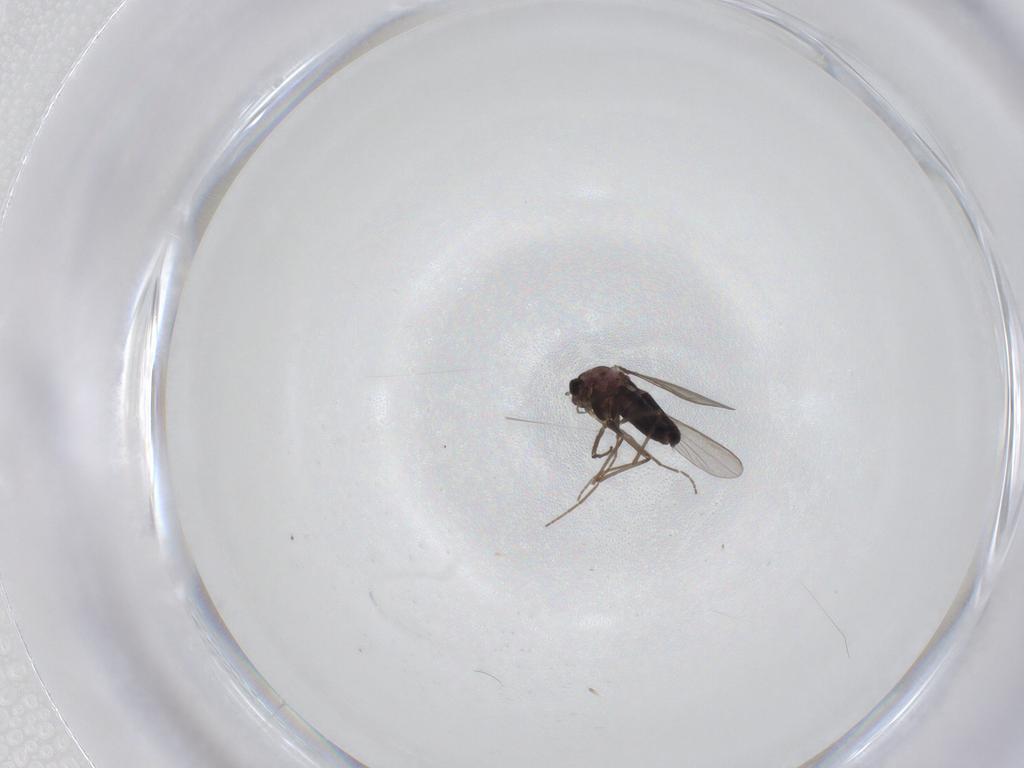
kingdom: Animalia
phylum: Arthropoda
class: Insecta
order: Diptera
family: Chironomidae
